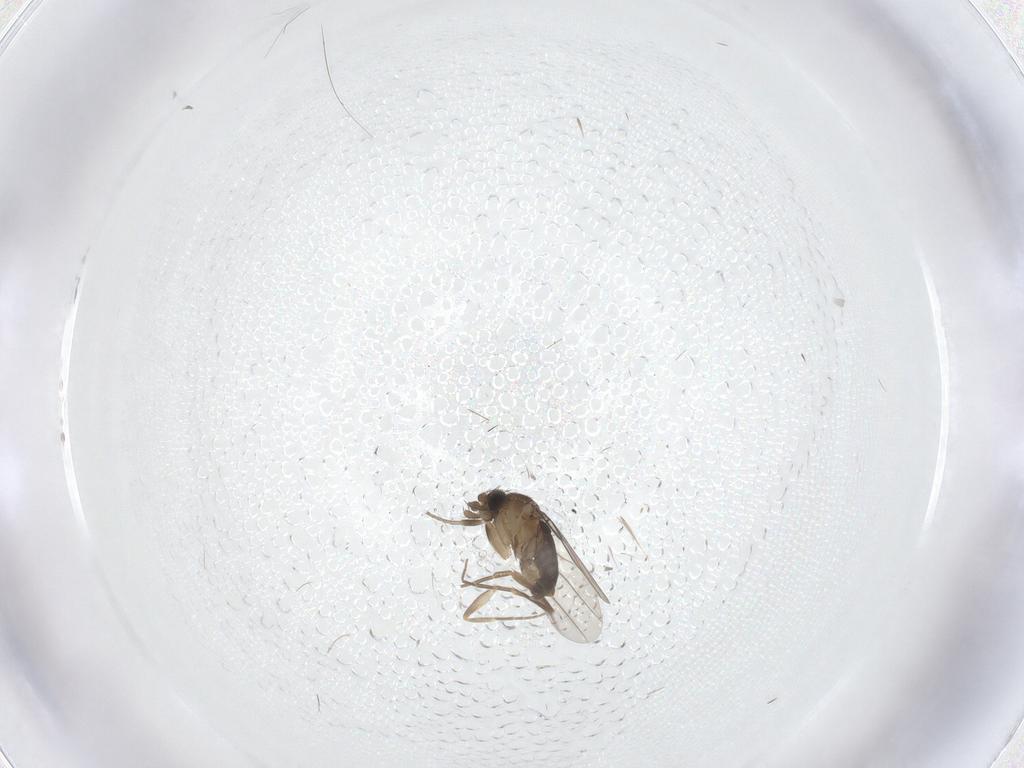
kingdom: Animalia
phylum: Arthropoda
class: Insecta
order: Diptera
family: Phoridae
